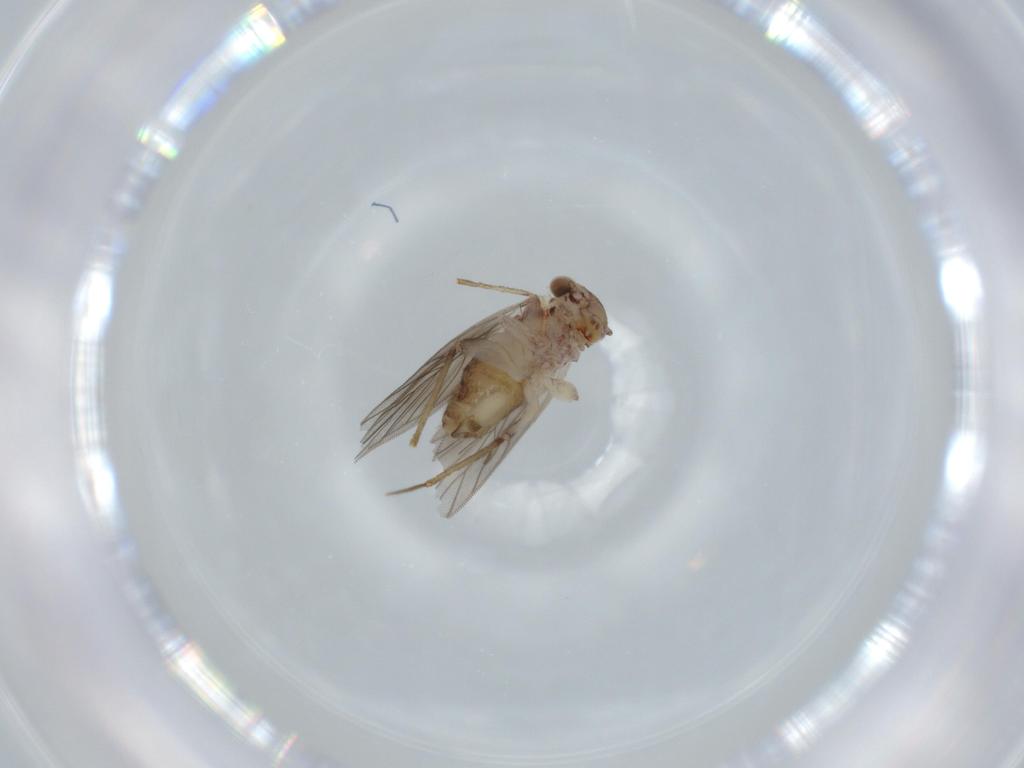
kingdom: Animalia
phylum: Arthropoda
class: Insecta
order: Psocodea
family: Lepidopsocidae
